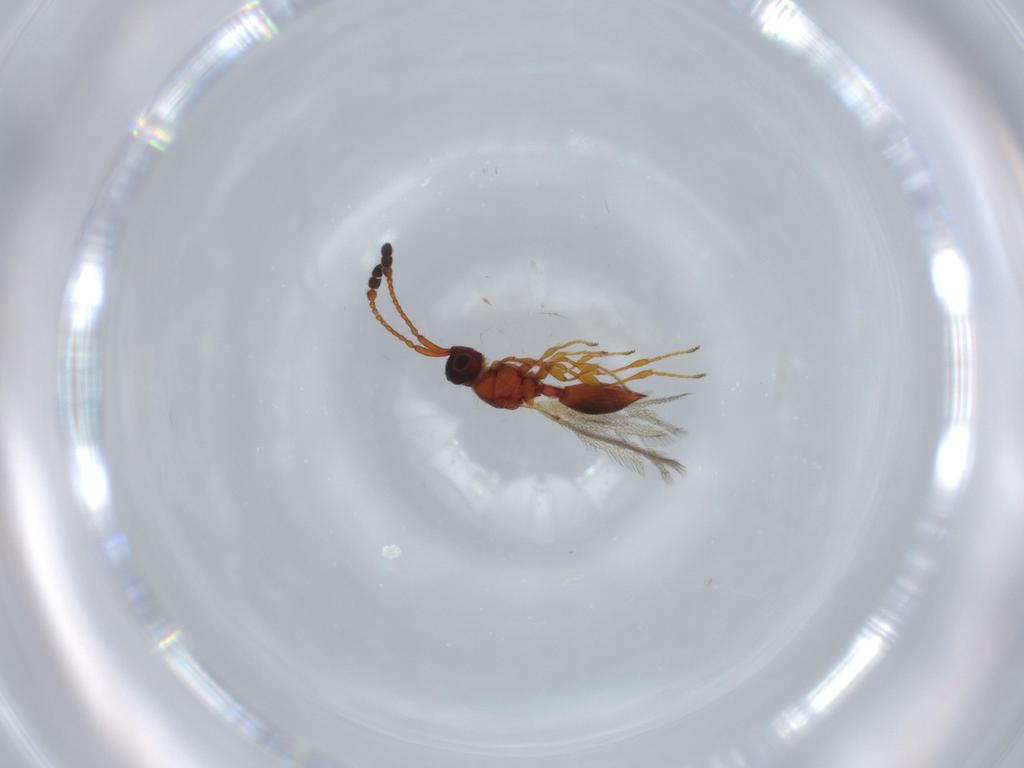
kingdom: Animalia
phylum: Arthropoda
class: Insecta
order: Hymenoptera
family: Diapriidae
